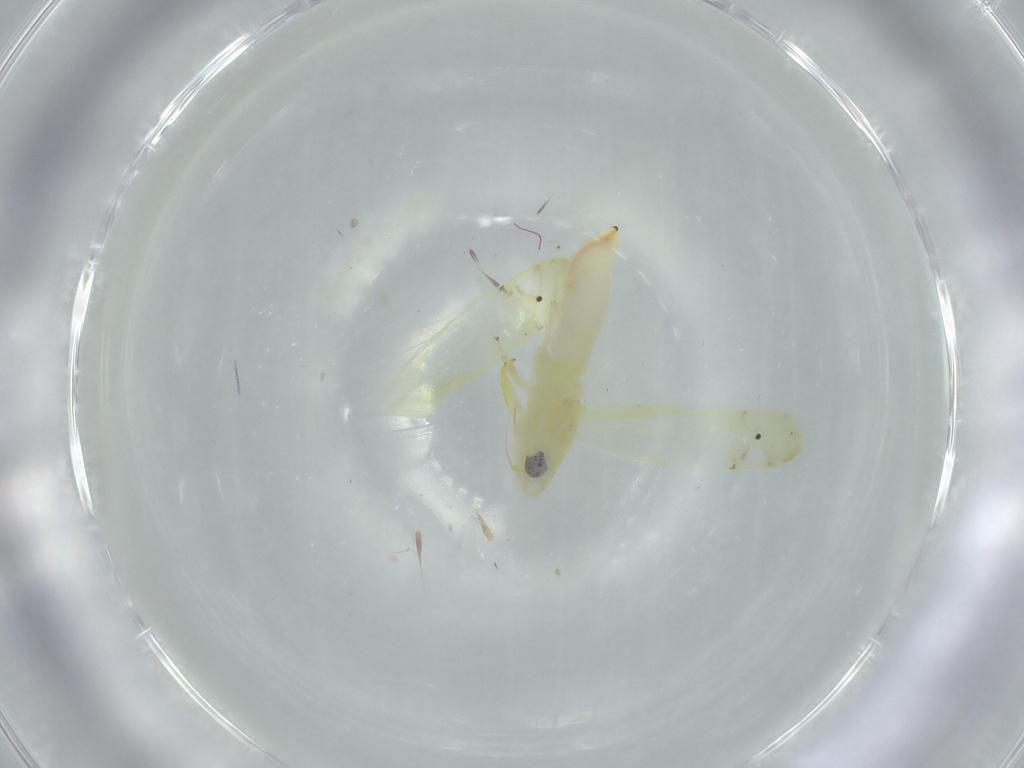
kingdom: Animalia
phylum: Arthropoda
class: Insecta
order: Hemiptera
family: Cicadellidae
